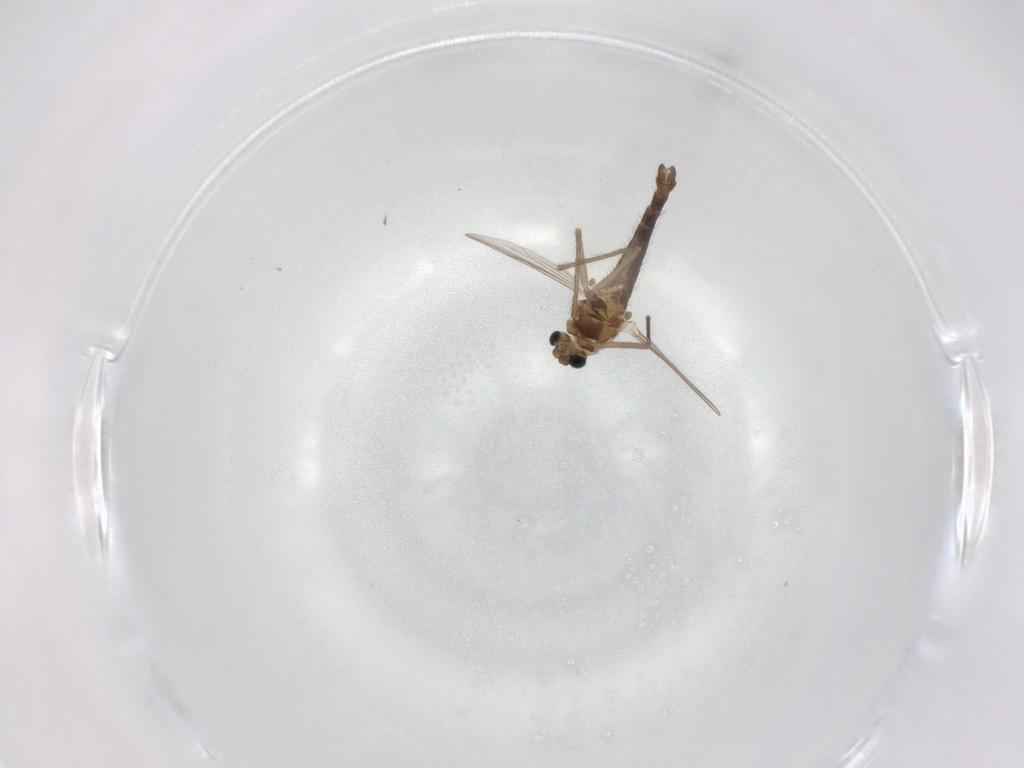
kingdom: Animalia
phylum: Arthropoda
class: Insecta
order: Diptera
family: Chironomidae
